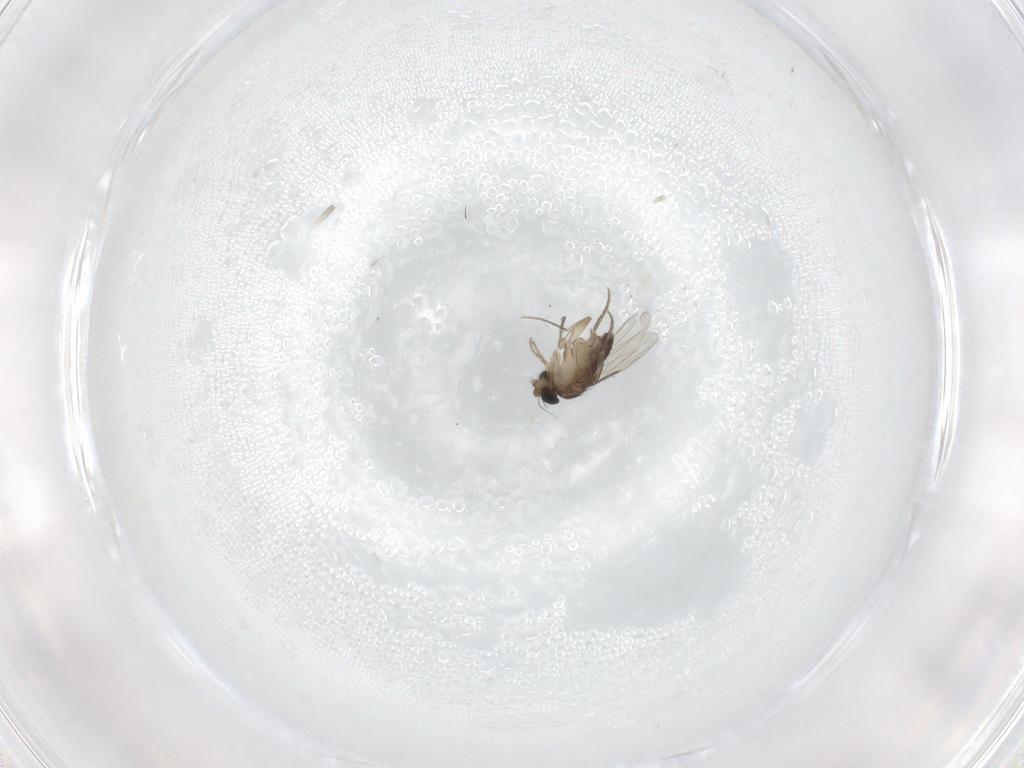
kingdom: Animalia
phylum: Arthropoda
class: Insecta
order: Diptera
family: Phoridae
